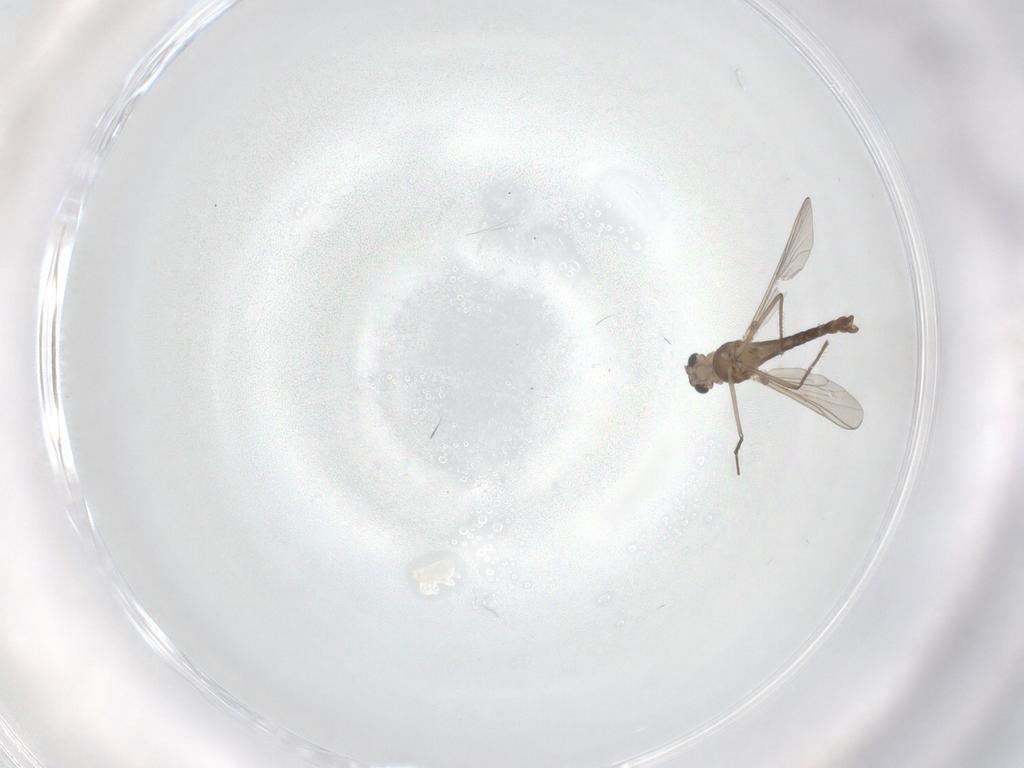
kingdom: Animalia
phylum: Arthropoda
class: Insecta
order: Diptera
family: Chironomidae
